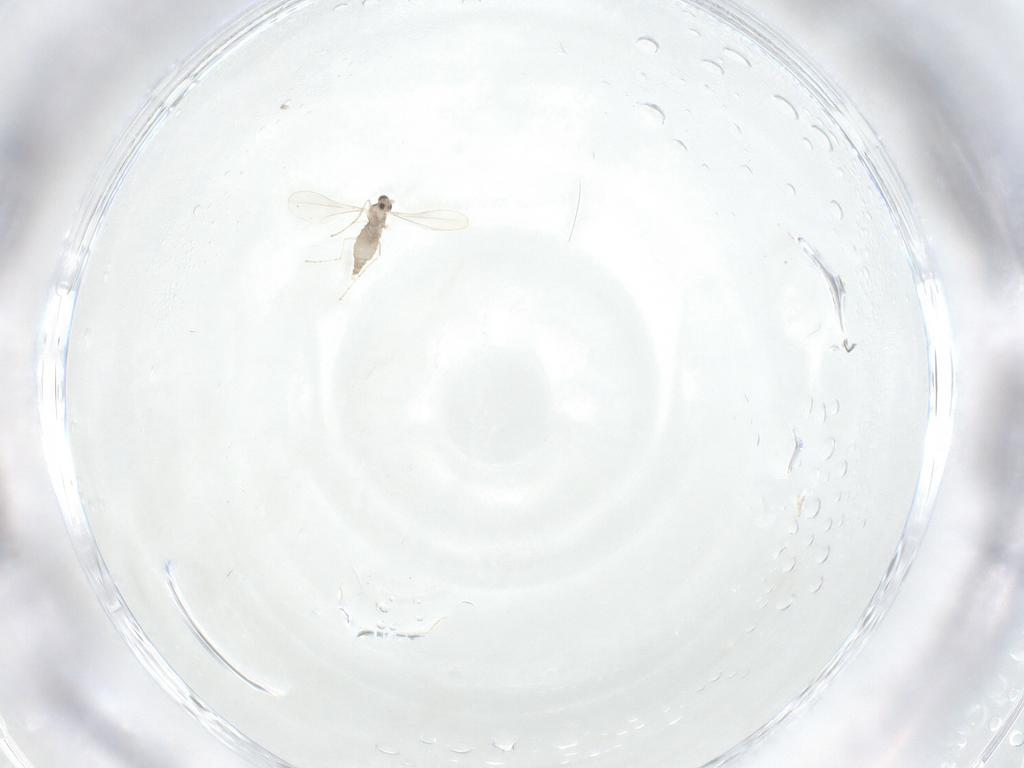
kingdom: Animalia
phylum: Arthropoda
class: Insecta
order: Diptera
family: Cecidomyiidae
